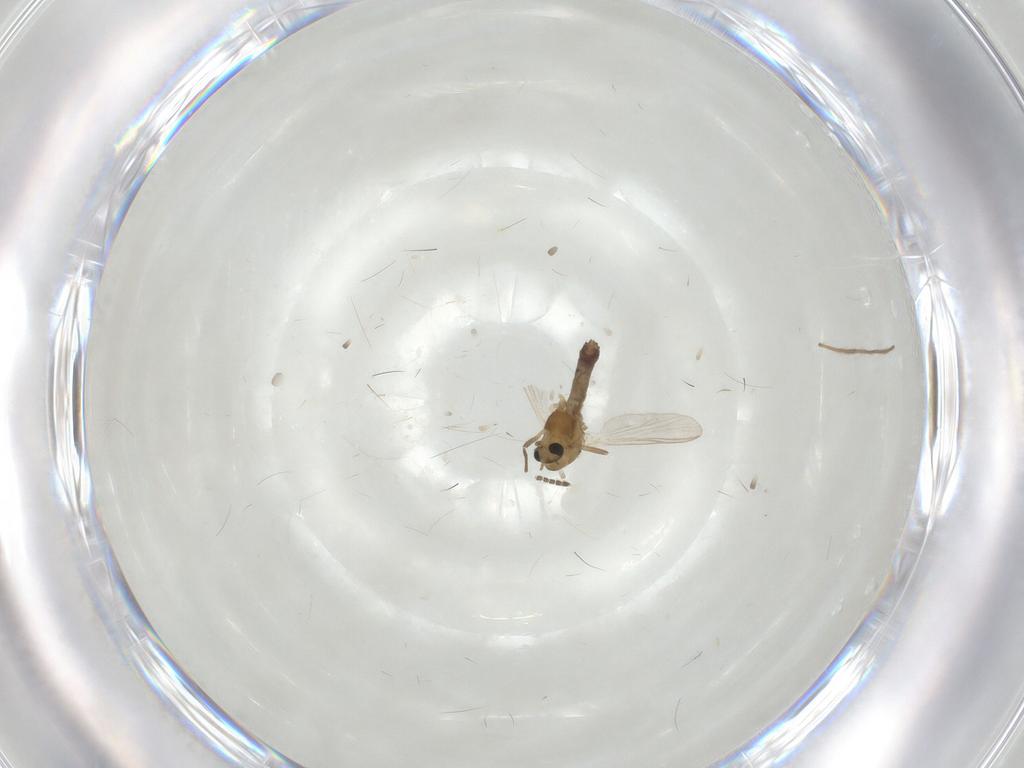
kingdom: Animalia
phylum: Arthropoda
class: Insecta
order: Diptera
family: Sciaridae
